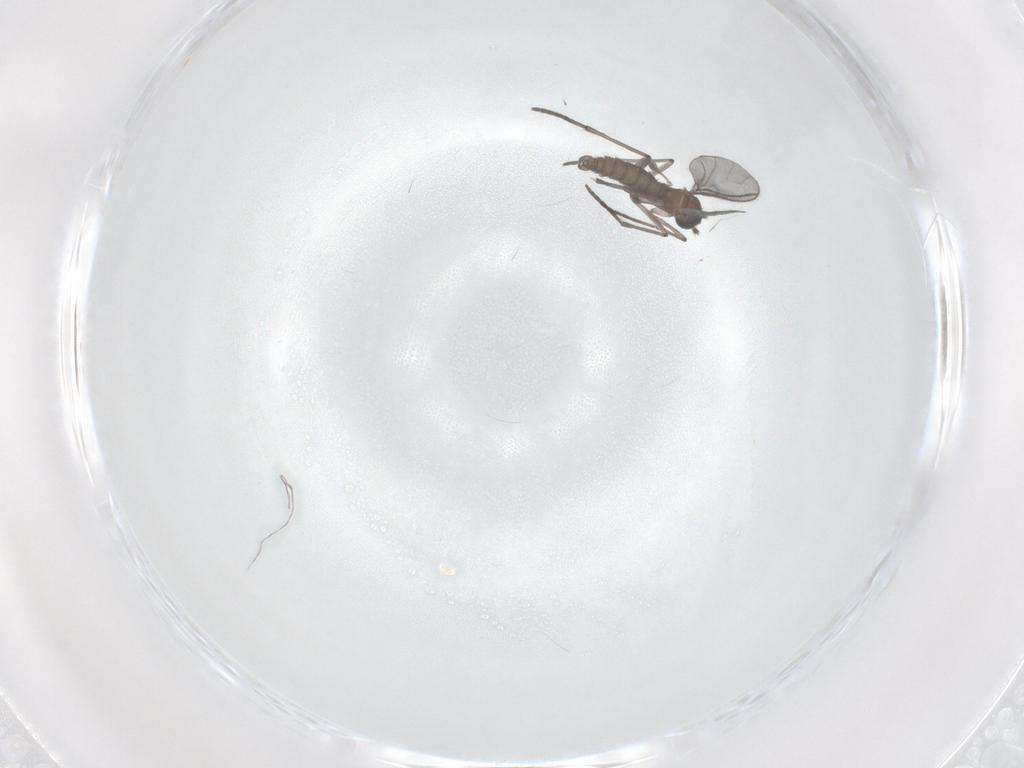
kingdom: Animalia
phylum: Arthropoda
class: Insecta
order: Diptera
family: Chironomidae
